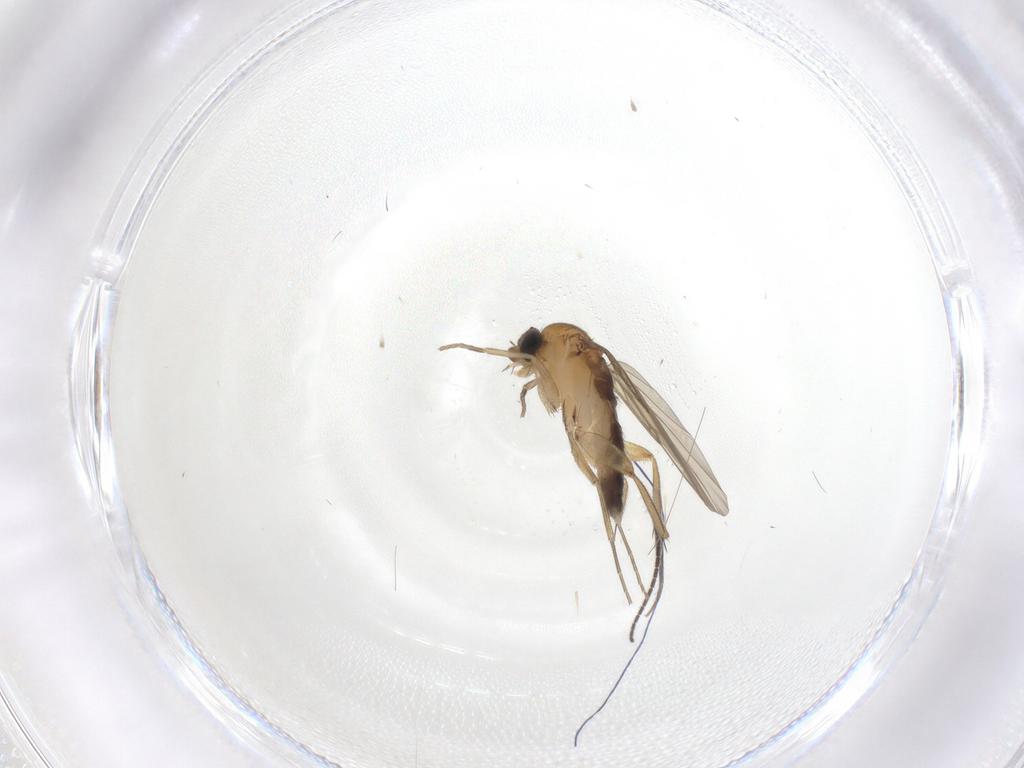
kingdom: Animalia
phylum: Arthropoda
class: Insecta
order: Diptera
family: Phoridae
